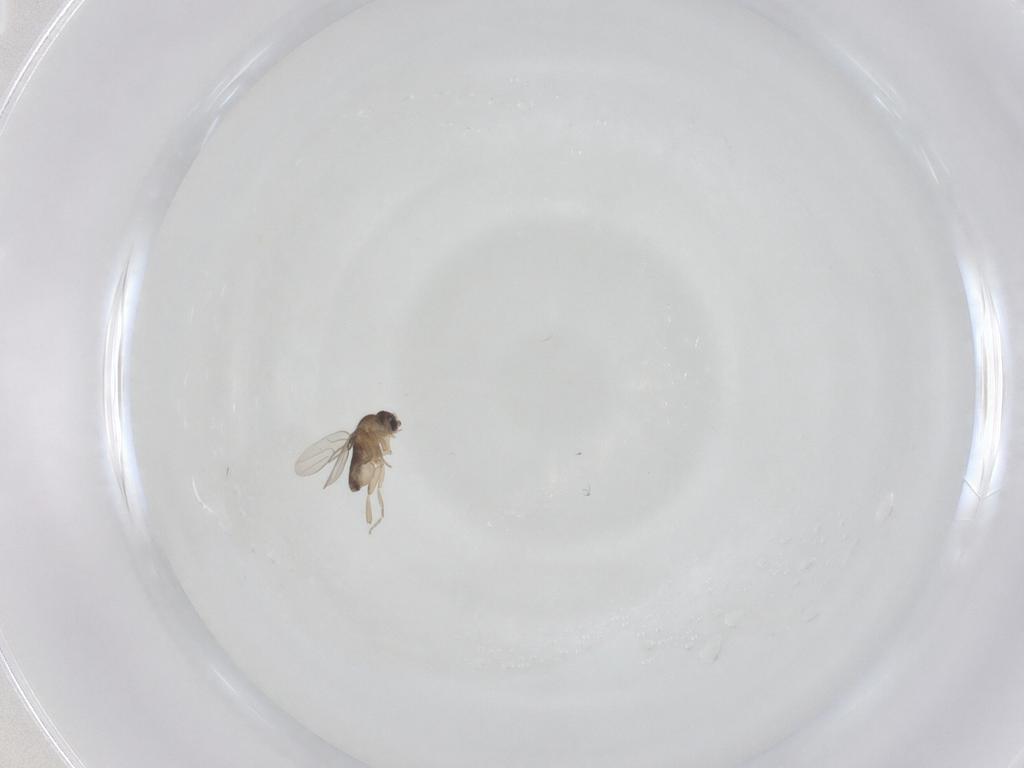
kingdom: Animalia
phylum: Arthropoda
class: Insecta
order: Diptera
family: Phoridae
